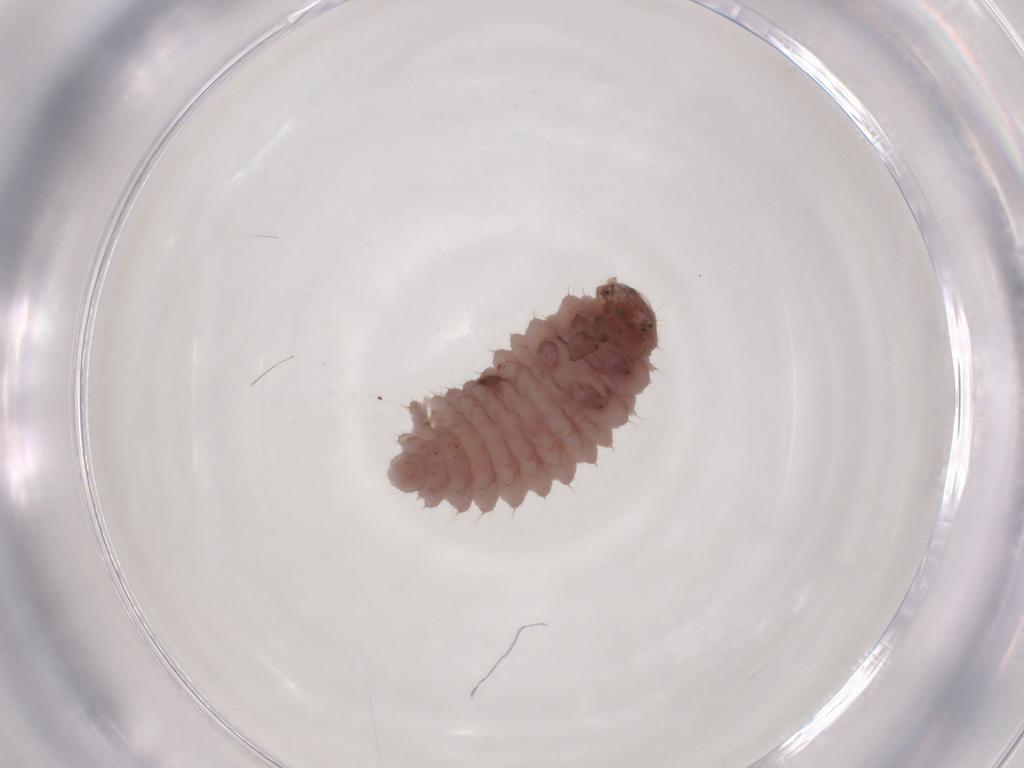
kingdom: Animalia
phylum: Arthropoda
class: Insecta
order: Coleoptera
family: Coccinellidae
